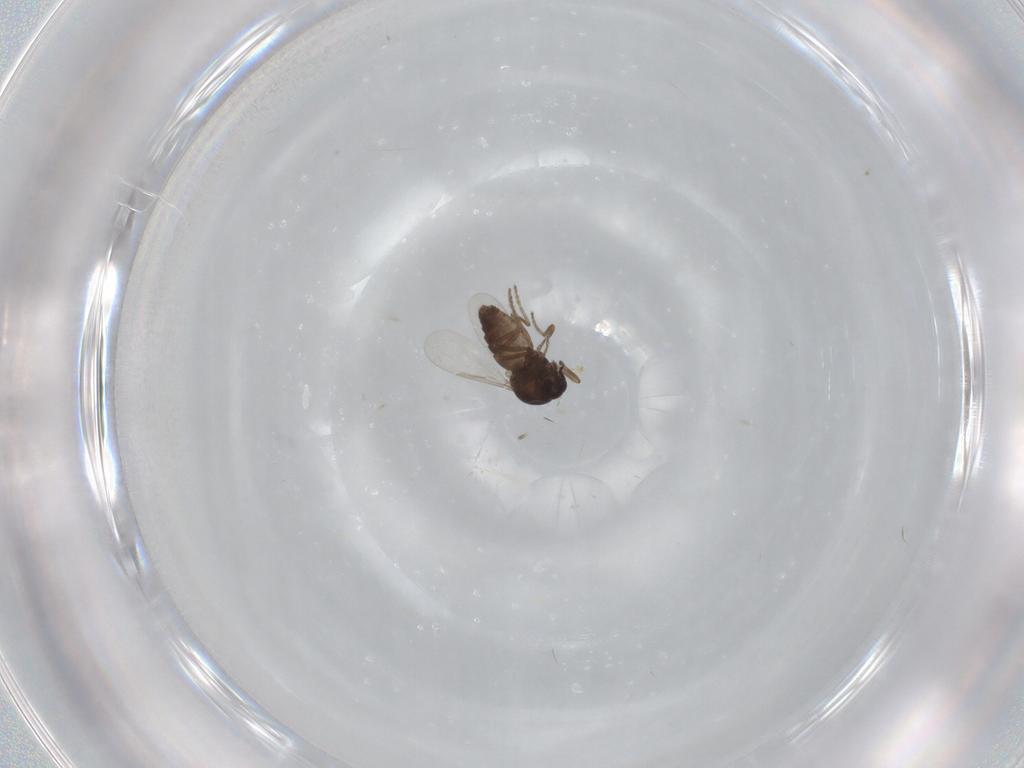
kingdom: Animalia
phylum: Arthropoda
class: Insecta
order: Diptera
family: Ceratopogonidae
